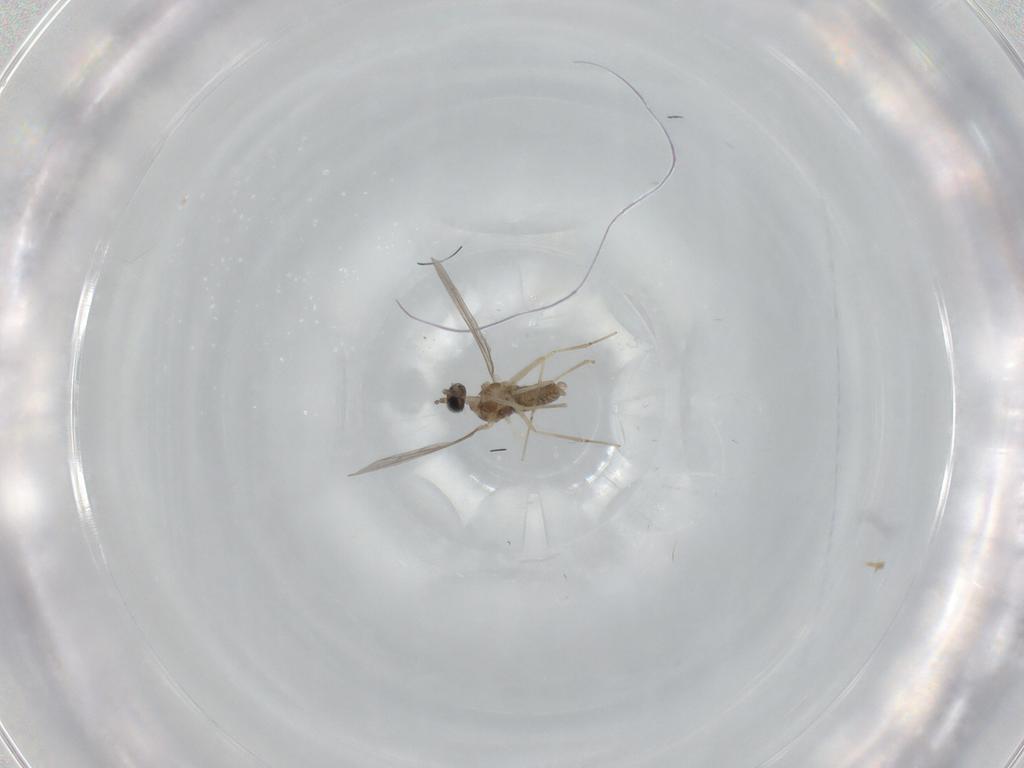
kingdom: Animalia
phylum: Arthropoda
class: Insecta
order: Diptera
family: Cecidomyiidae
